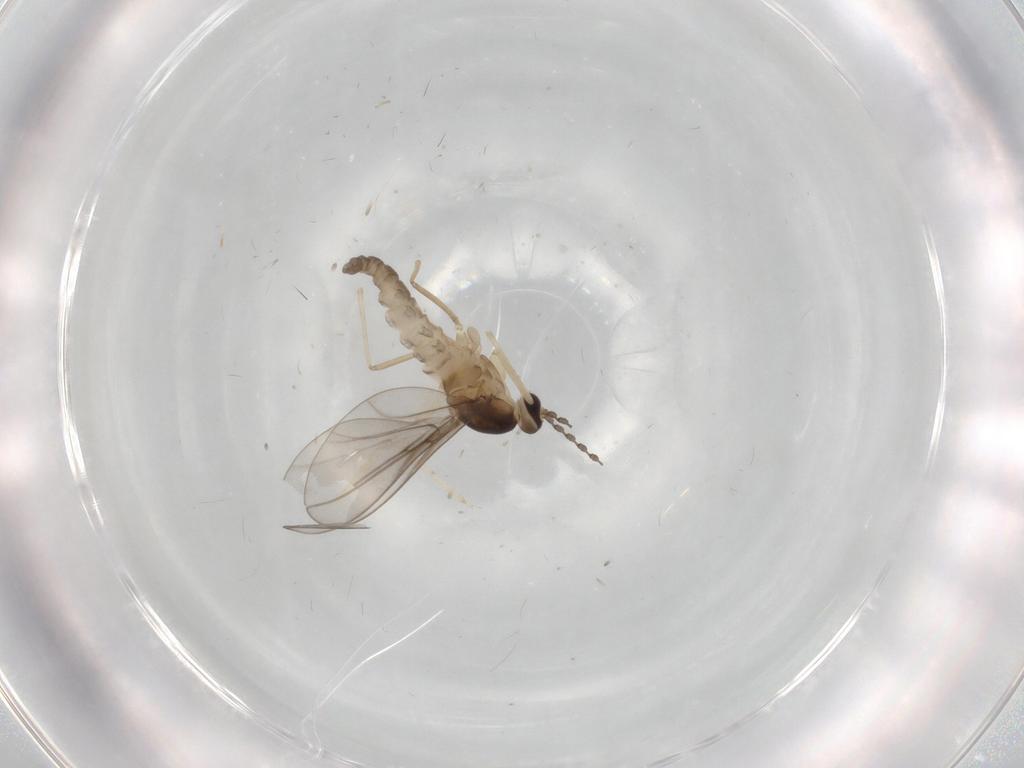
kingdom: Animalia
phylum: Arthropoda
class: Insecta
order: Diptera
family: Cecidomyiidae
